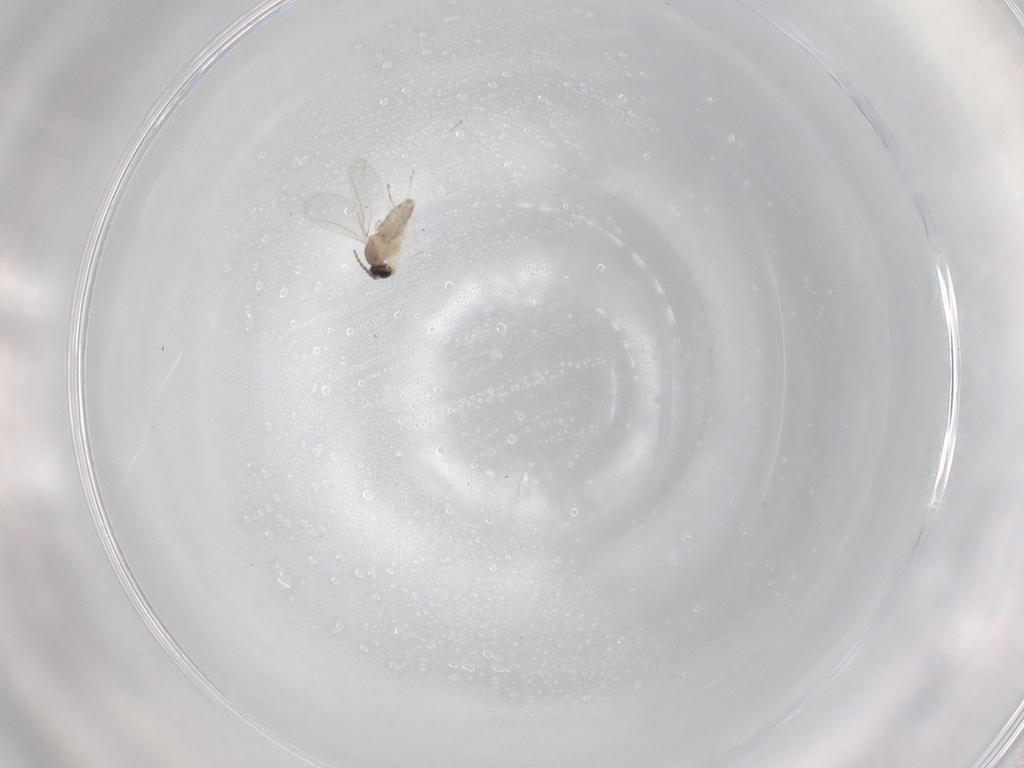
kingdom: Animalia
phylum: Arthropoda
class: Insecta
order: Diptera
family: Cecidomyiidae
